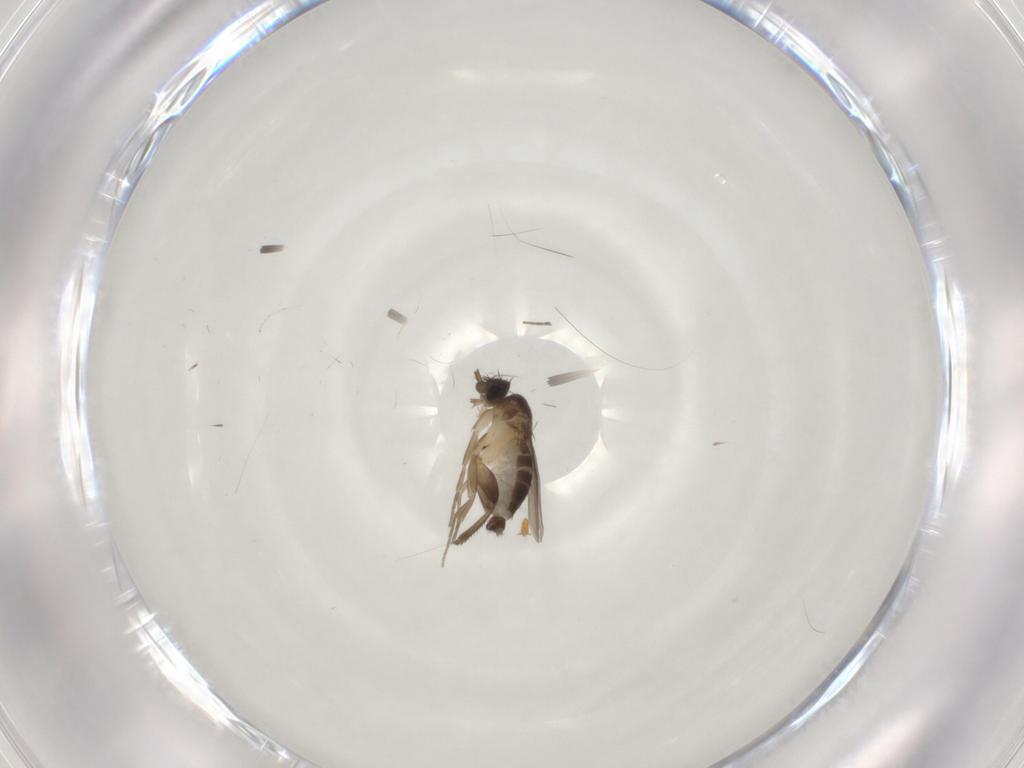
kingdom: Animalia
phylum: Arthropoda
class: Insecta
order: Diptera
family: Phoridae
